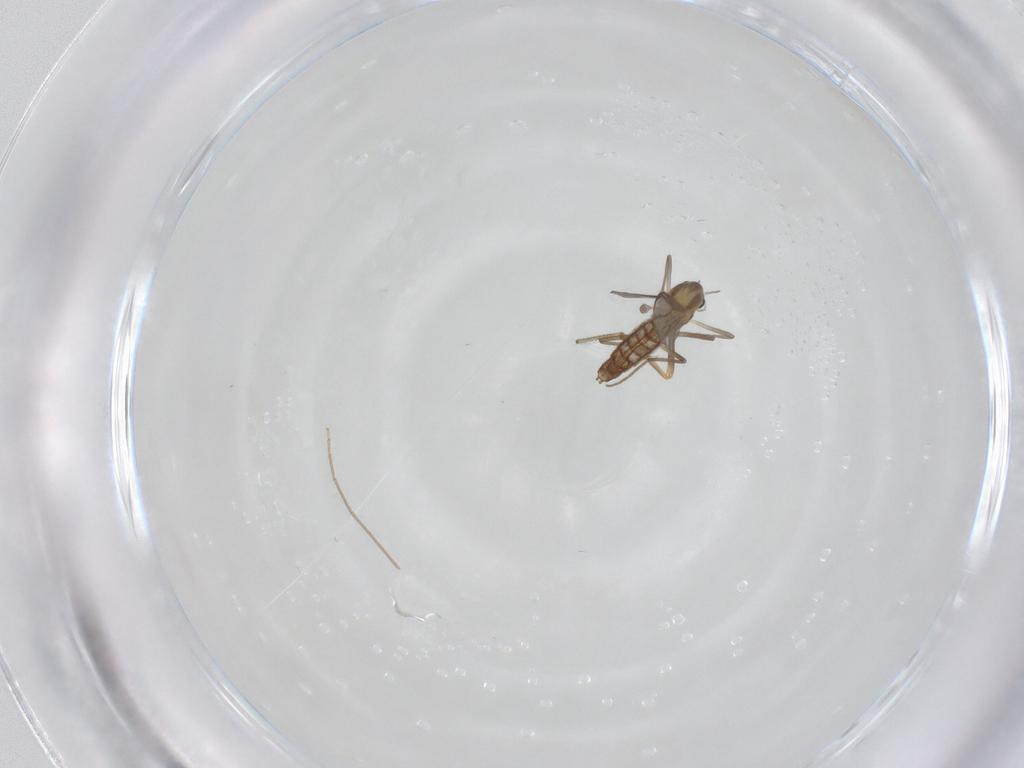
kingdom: Animalia
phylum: Arthropoda
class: Insecta
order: Diptera
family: Ceratopogonidae
